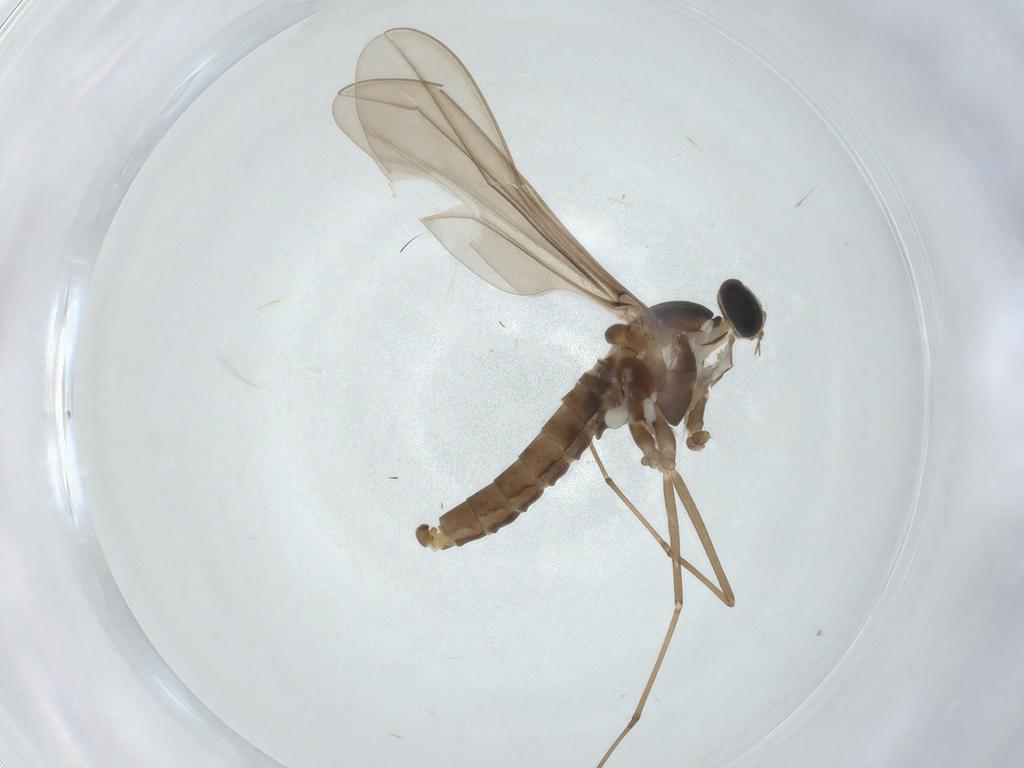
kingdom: Animalia
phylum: Arthropoda
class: Insecta
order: Diptera
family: Cecidomyiidae
